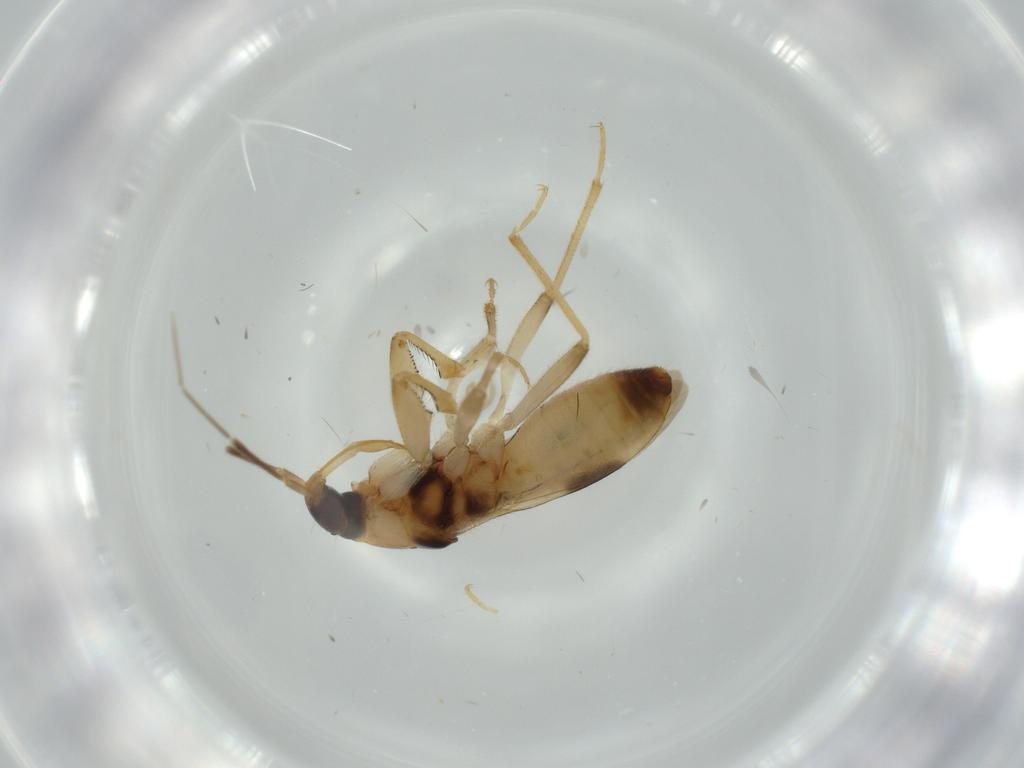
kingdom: Animalia
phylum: Arthropoda
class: Insecta
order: Hemiptera
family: Nabidae
